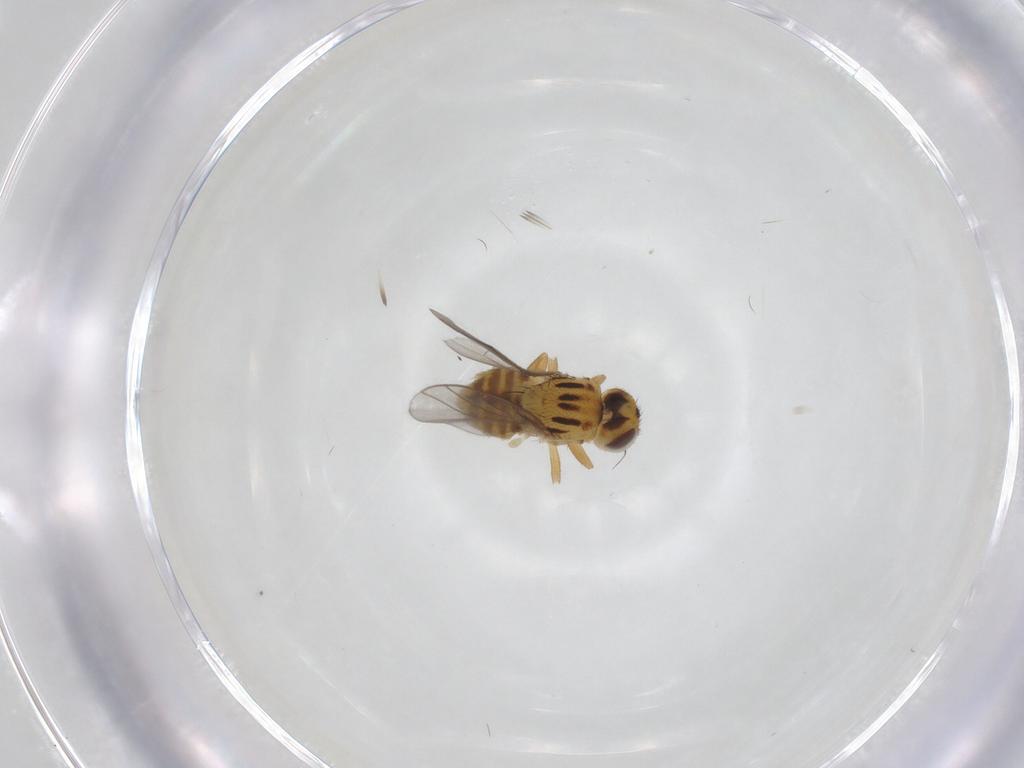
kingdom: Animalia
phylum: Arthropoda
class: Insecta
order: Diptera
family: Chloropidae
